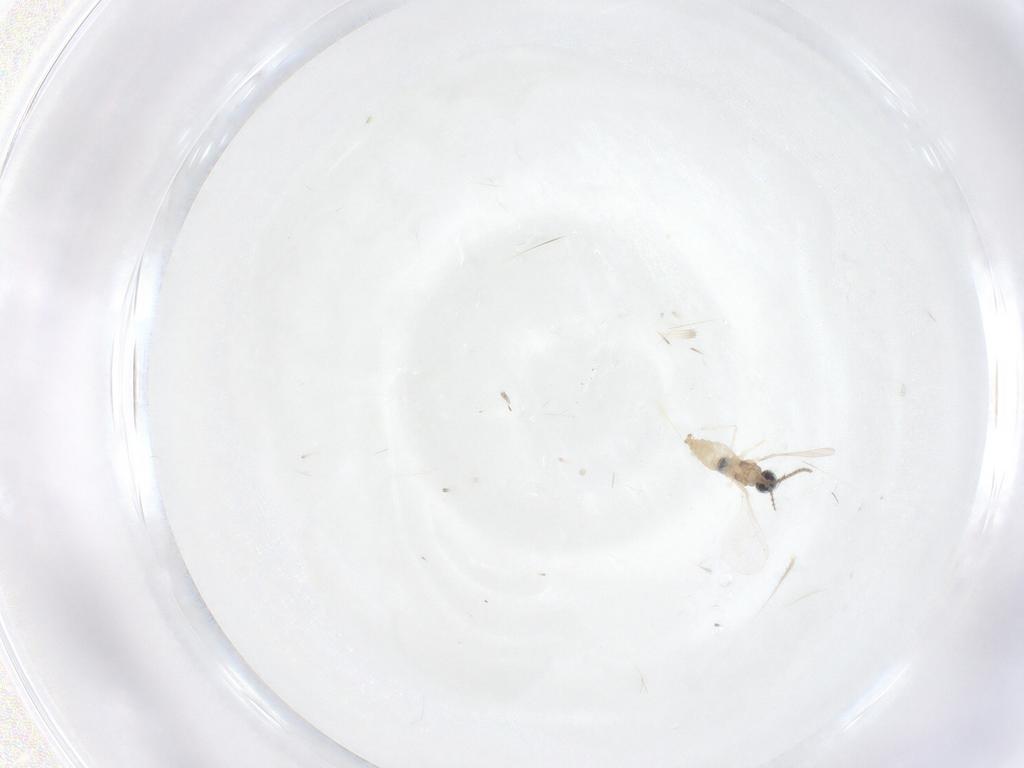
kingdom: Animalia
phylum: Arthropoda
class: Insecta
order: Diptera
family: Cecidomyiidae
